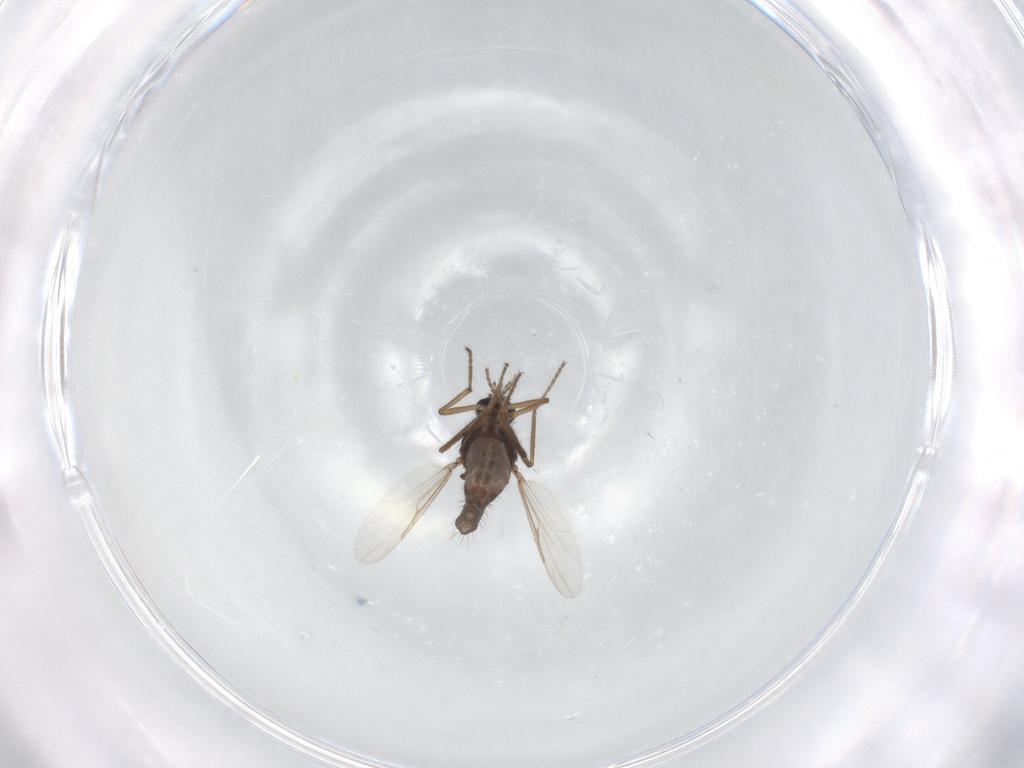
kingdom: Animalia
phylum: Arthropoda
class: Insecta
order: Diptera
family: Ceratopogonidae
